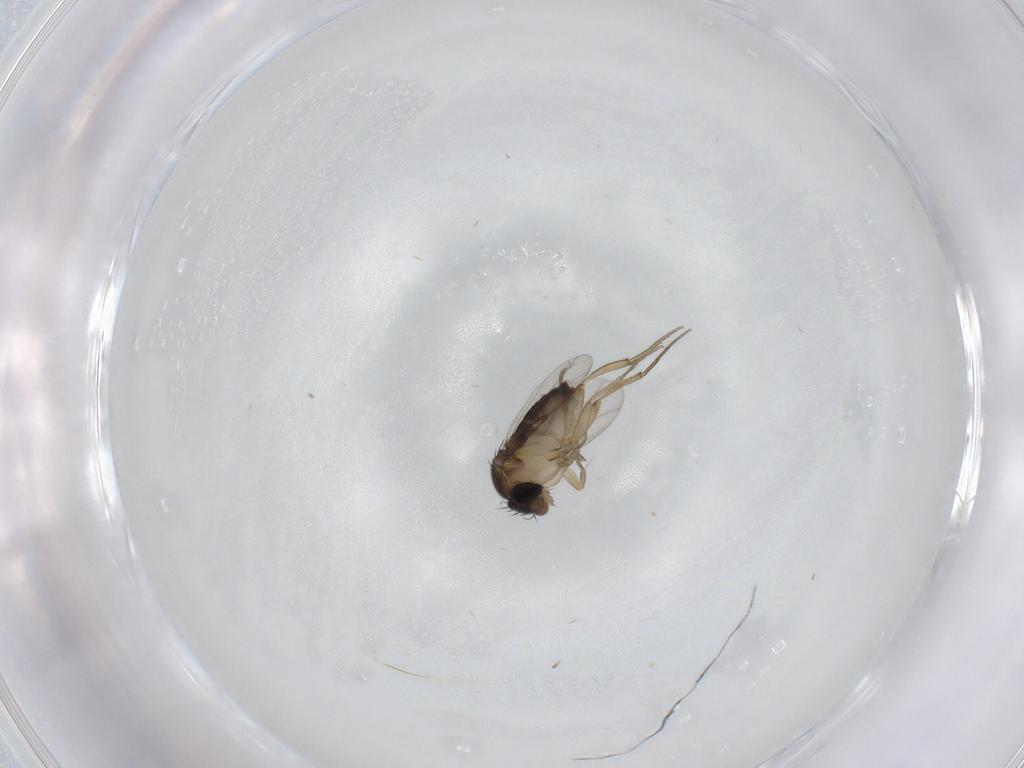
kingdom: Animalia
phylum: Arthropoda
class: Insecta
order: Diptera
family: Phoridae
